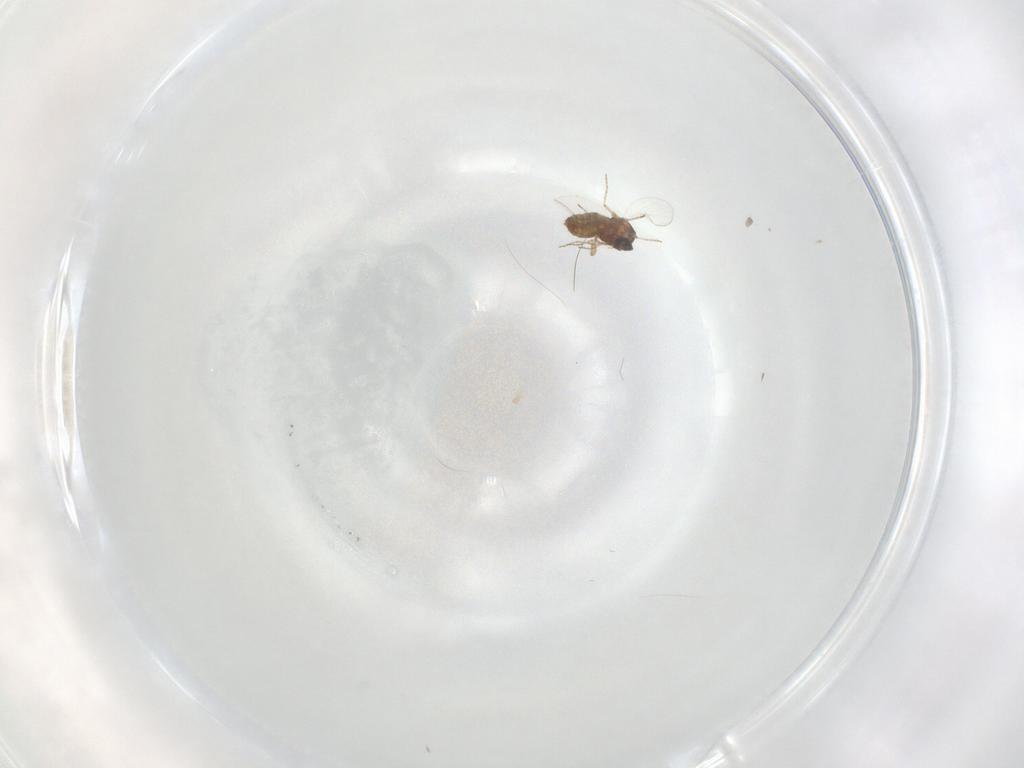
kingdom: Animalia
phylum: Arthropoda
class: Insecta
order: Diptera
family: Ceratopogonidae
